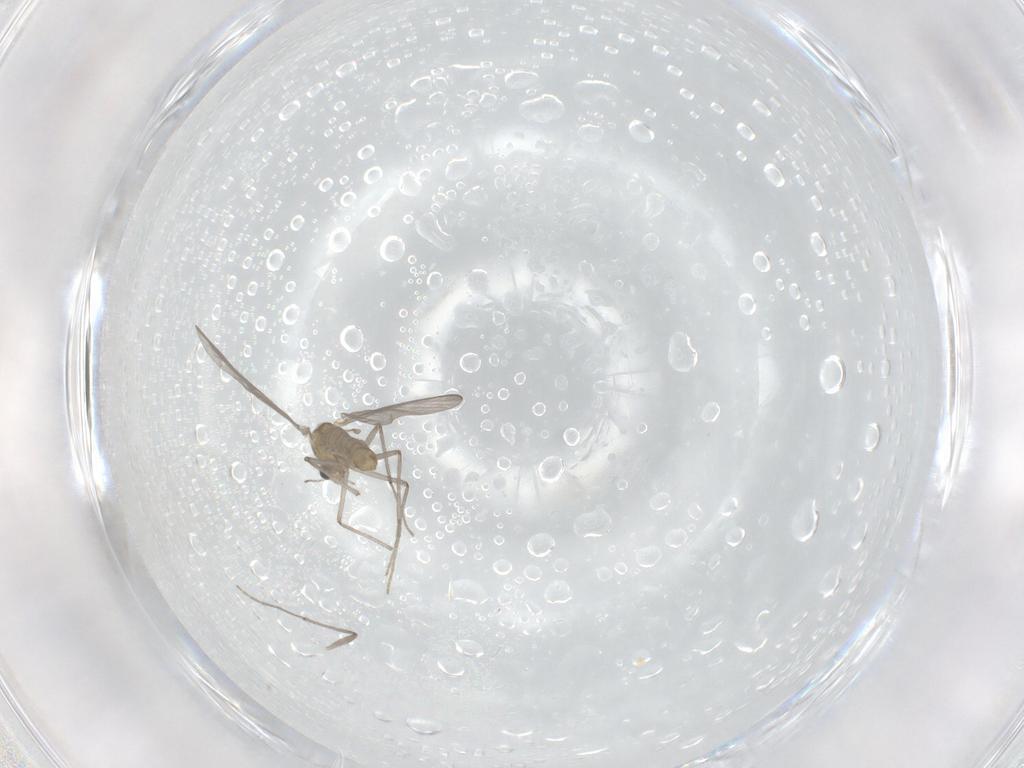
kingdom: Animalia
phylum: Arthropoda
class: Insecta
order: Diptera
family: Chironomidae
